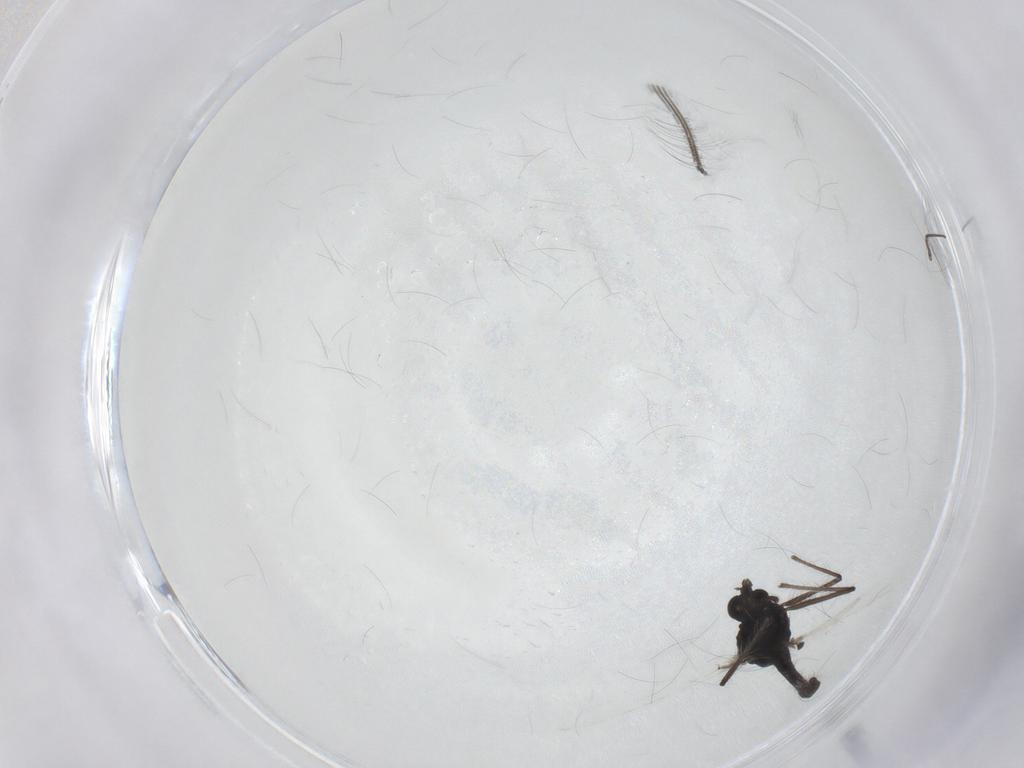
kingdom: Animalia
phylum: Arthropoda
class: Insecta
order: Diptera
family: Chironomidae
